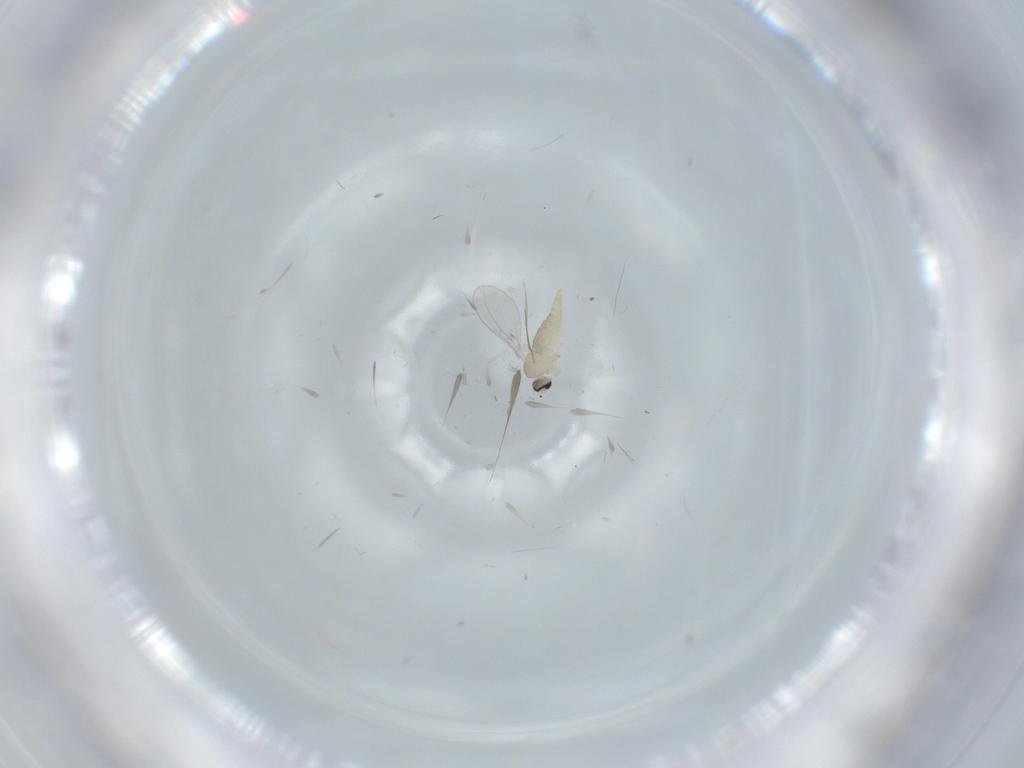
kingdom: Animalia
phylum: Arthropoda
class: Insecta
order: Diptera
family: Cecidomyiidae
